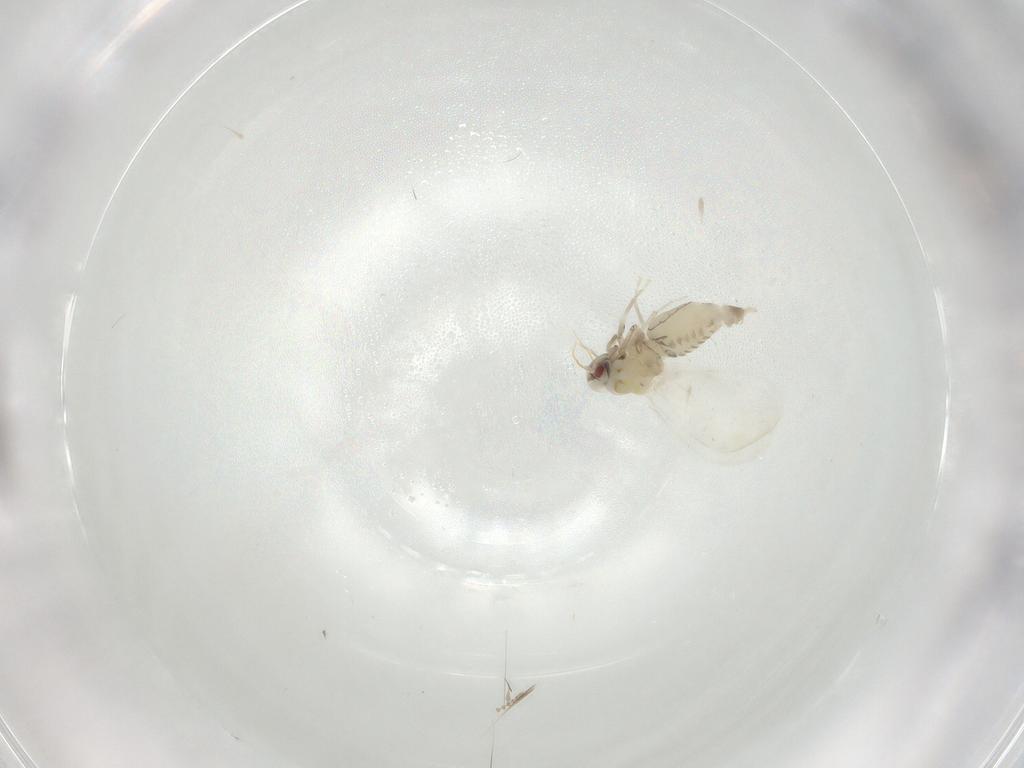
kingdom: Animalia
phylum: Arthropoda
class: Insecta
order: Hemiptera
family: Aleyrodidae
